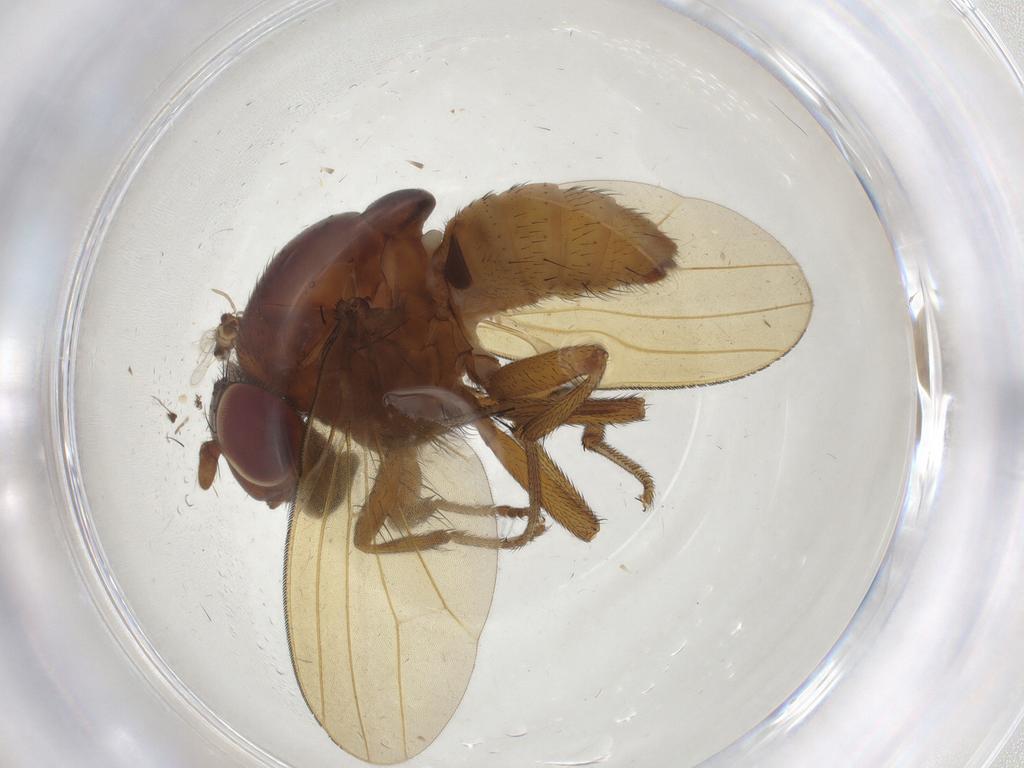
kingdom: Animalia
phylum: Arthropoda
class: Insecta
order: Diptera
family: Lauxaniidae
